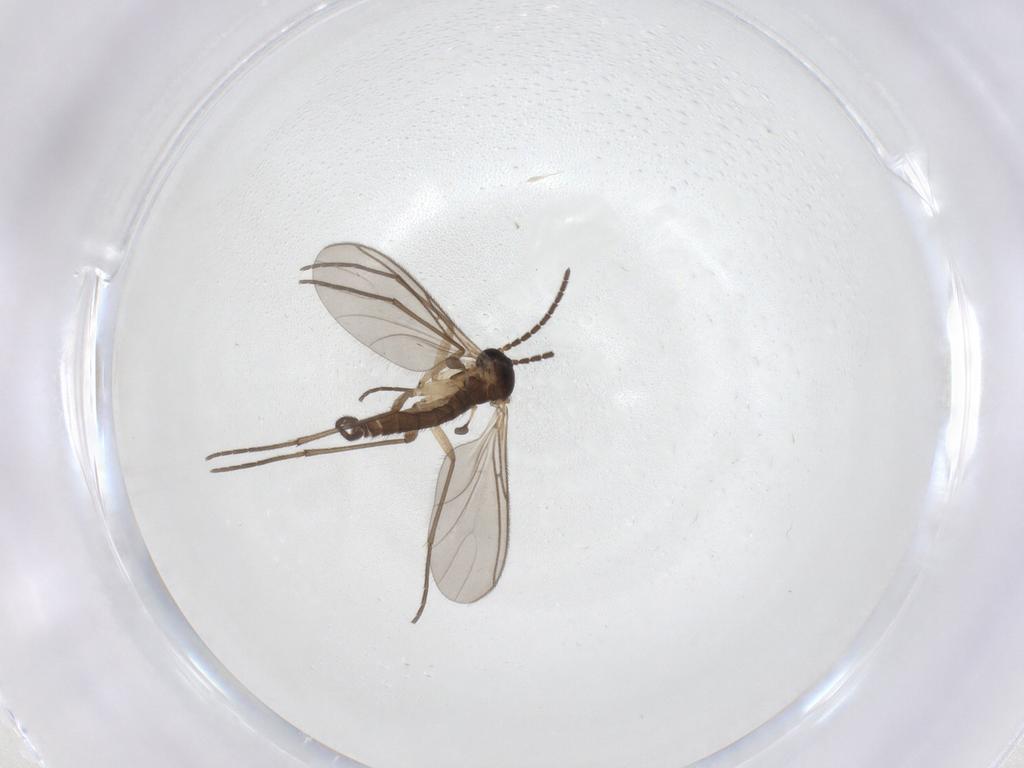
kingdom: Animalia
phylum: Arthropoda
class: Insecta
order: Diptera
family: Sciaridae
